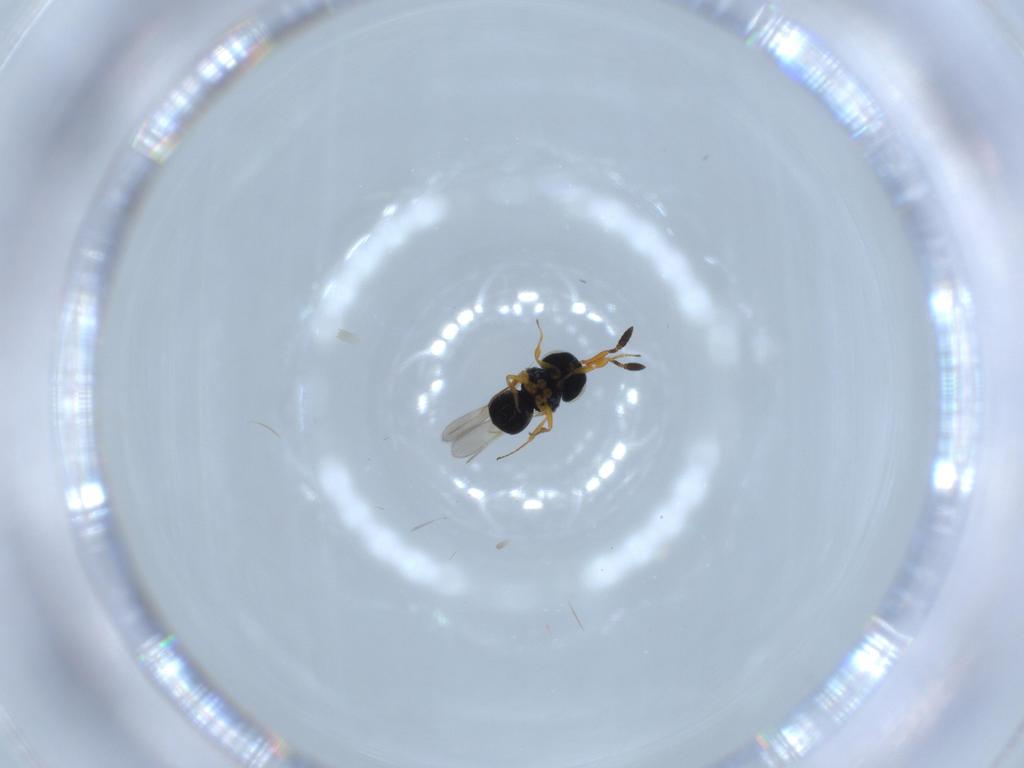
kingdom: Animalia
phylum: Arthropoda
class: Insecta
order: Hymenoptera
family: Scelionidae
